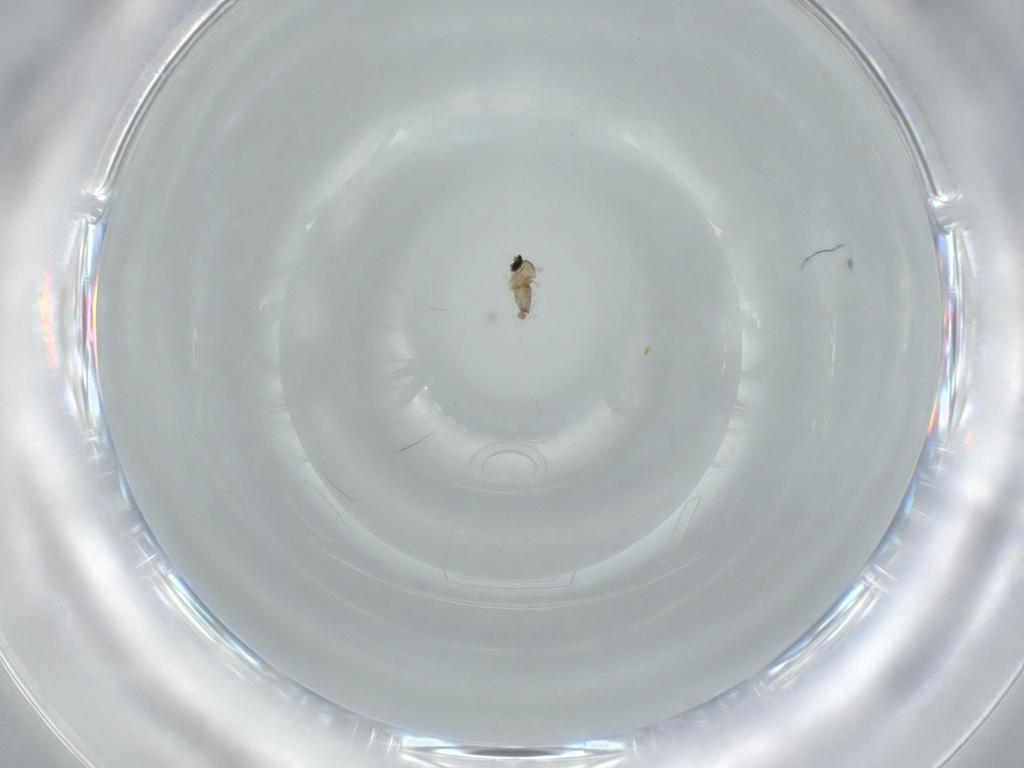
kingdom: Animalia
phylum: Arthropoda
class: Insecta
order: Diptera
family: Cecidomyiidae
